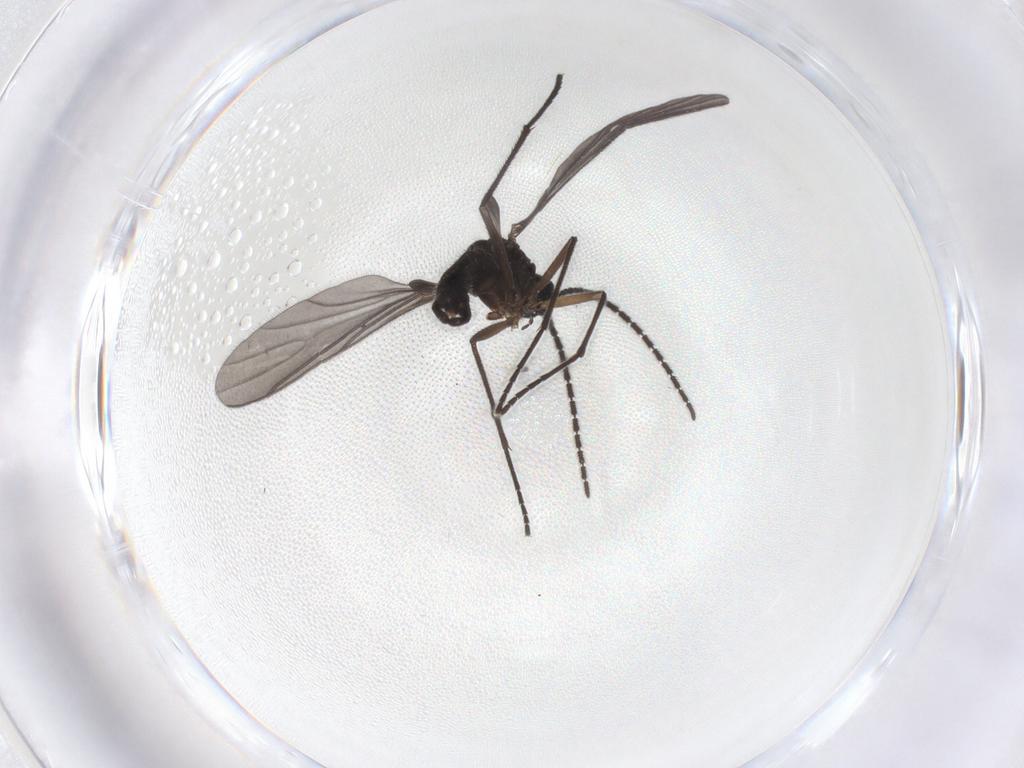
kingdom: Animalia
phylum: Arthropoda
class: Insecta
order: Diptera
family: Sciaridae
